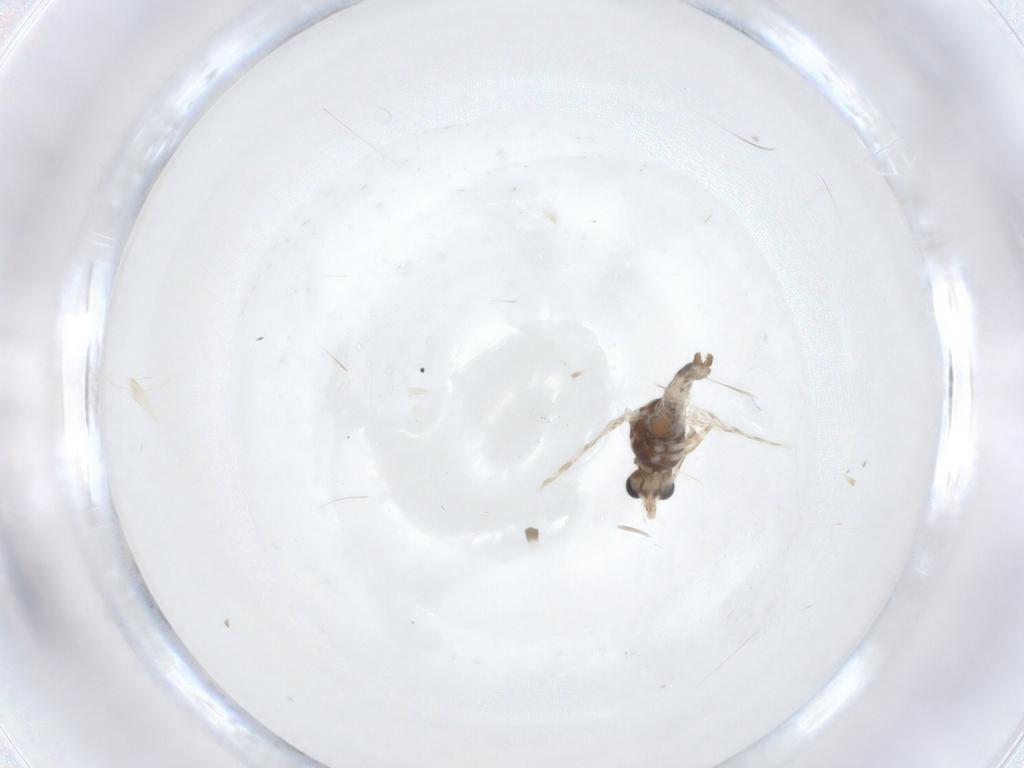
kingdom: Animalia
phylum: Arthropoda
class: Insecta
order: Diptera
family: Chironomidae
